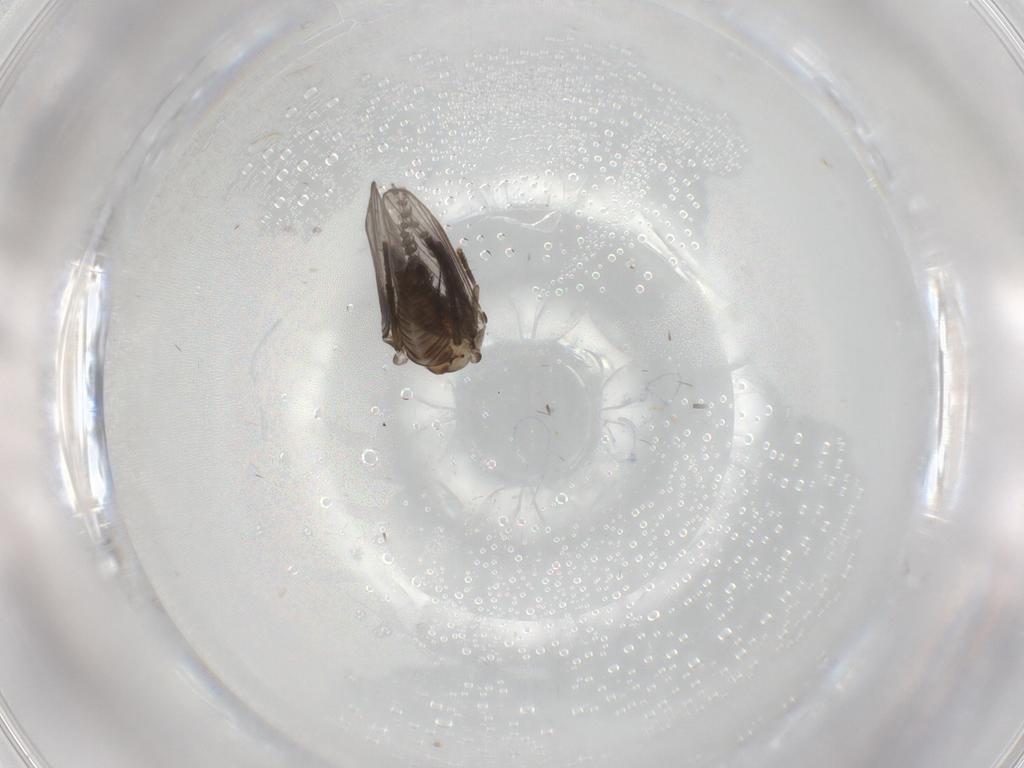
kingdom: Animalia
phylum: Arthropoda
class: Insecta
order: Diptera
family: Psychodidae
